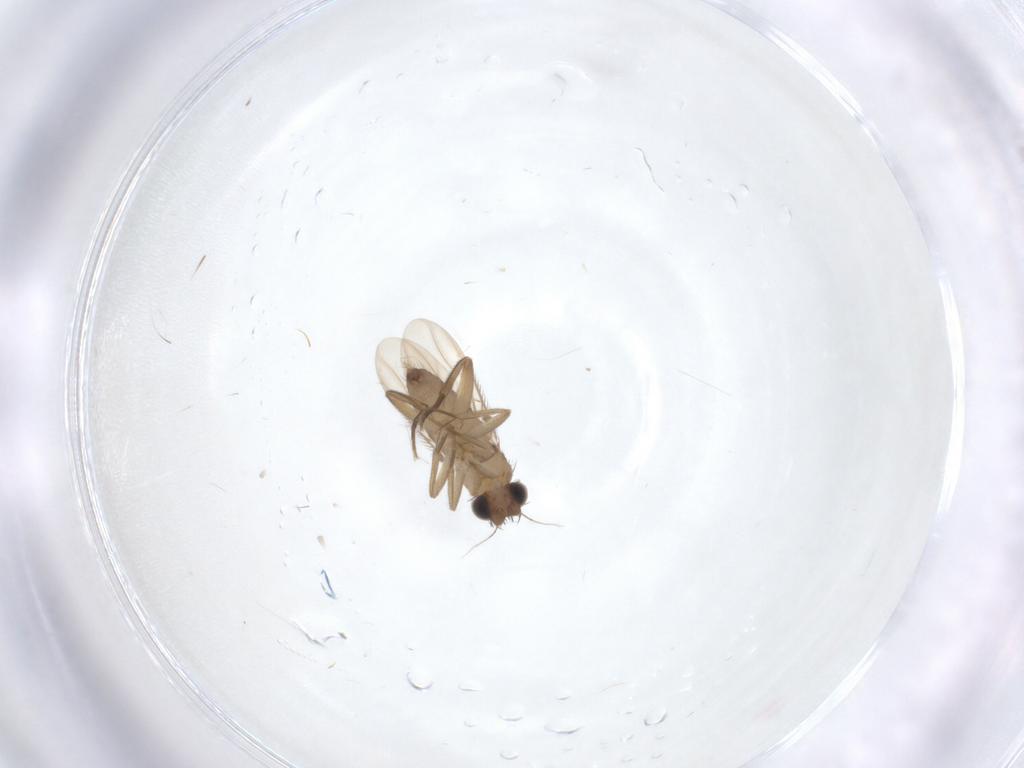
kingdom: Animalia
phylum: Arthropoda
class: Insecta
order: Diptera
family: Phoridae
